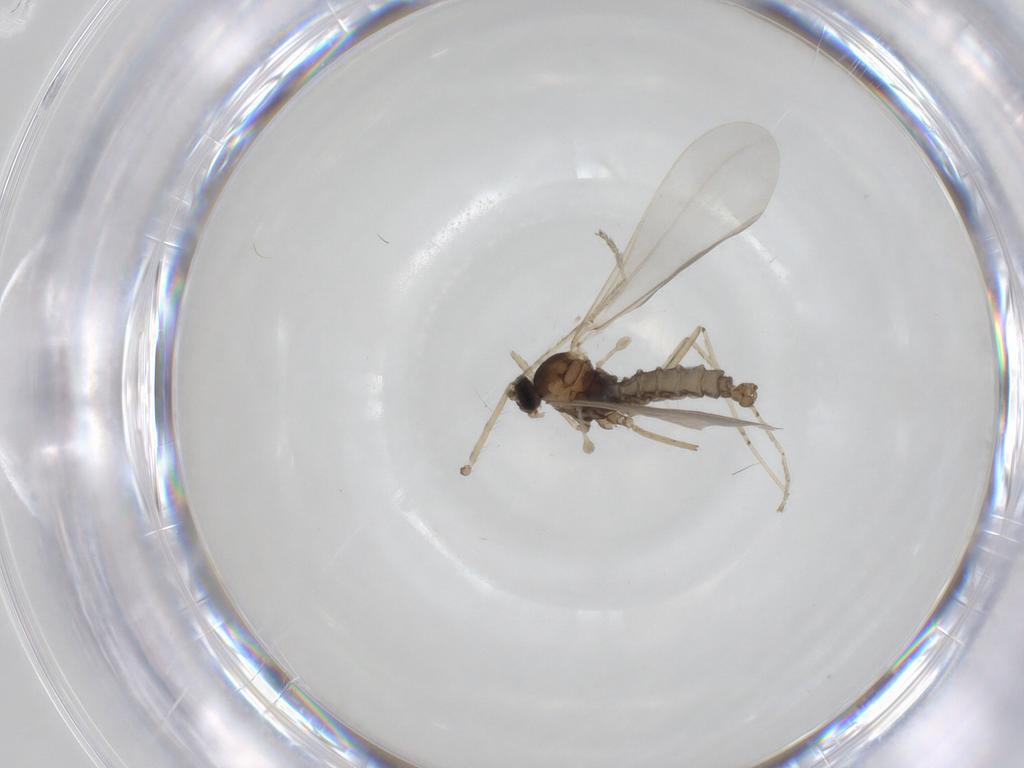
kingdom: Animalia
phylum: Arthropoda
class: Insecta
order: Diptera
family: Cecidomyiidae
